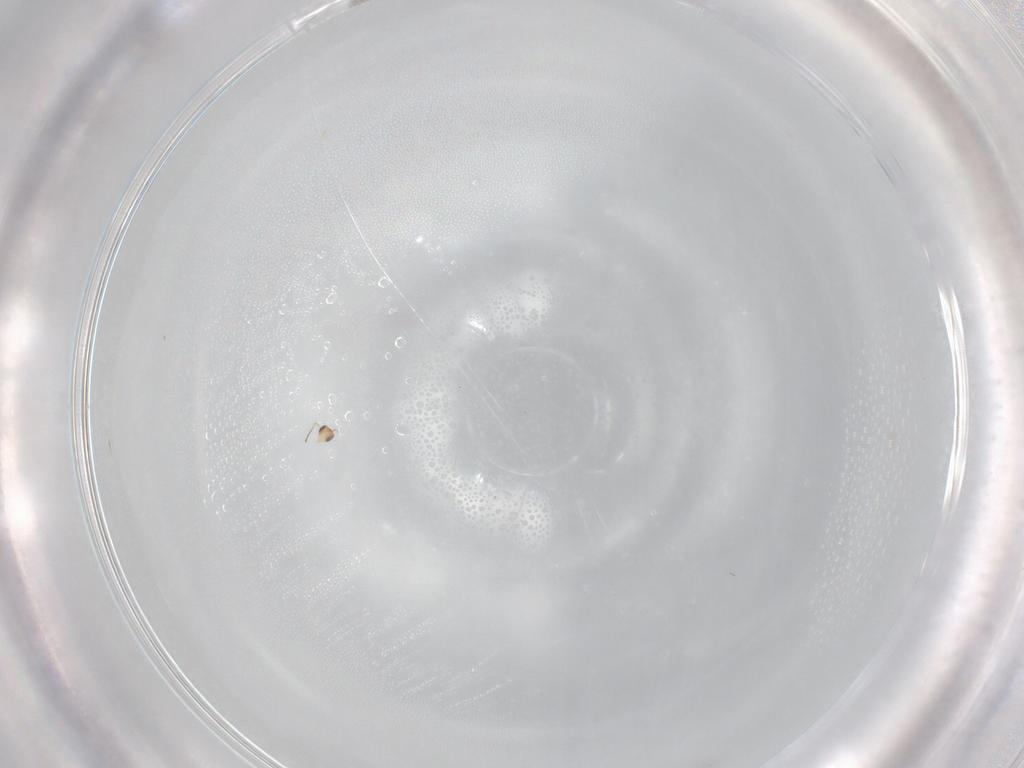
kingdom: Animalia
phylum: Arthropoda
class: Insecta
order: Hymenoptera
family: Mymaridae
